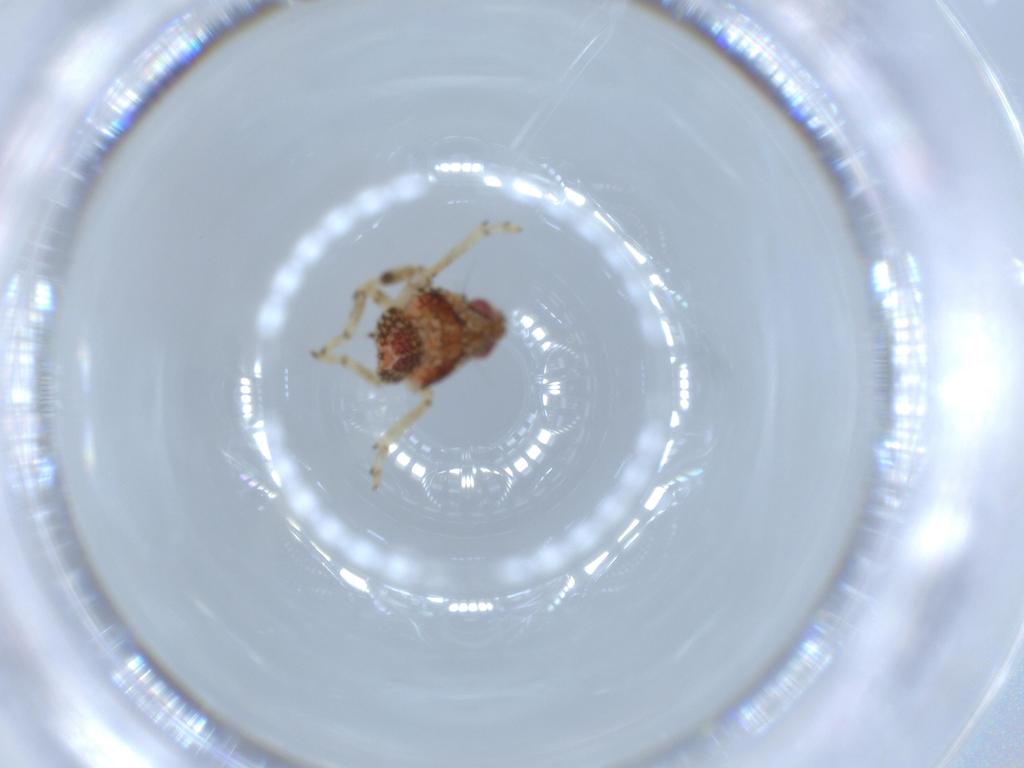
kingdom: Animalia
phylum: Arthropoda
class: Insecta
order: Hemiptera
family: Issidae
